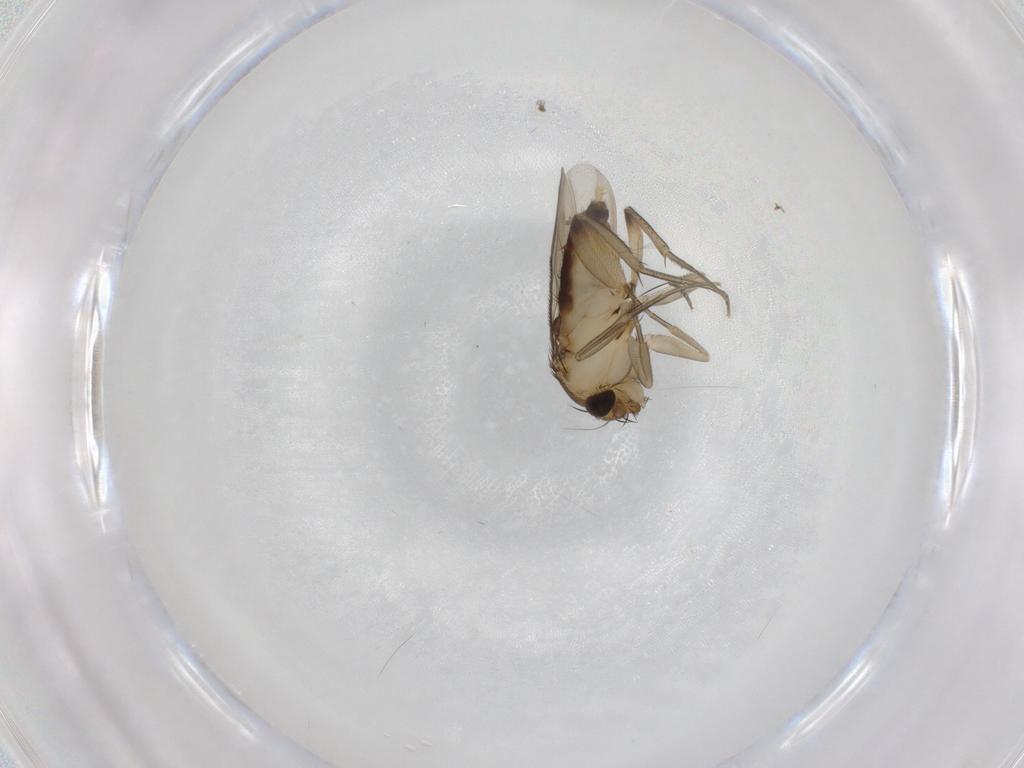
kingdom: Animalia
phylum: Arthropoda
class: Insecta
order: Diptera
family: Phoridae
